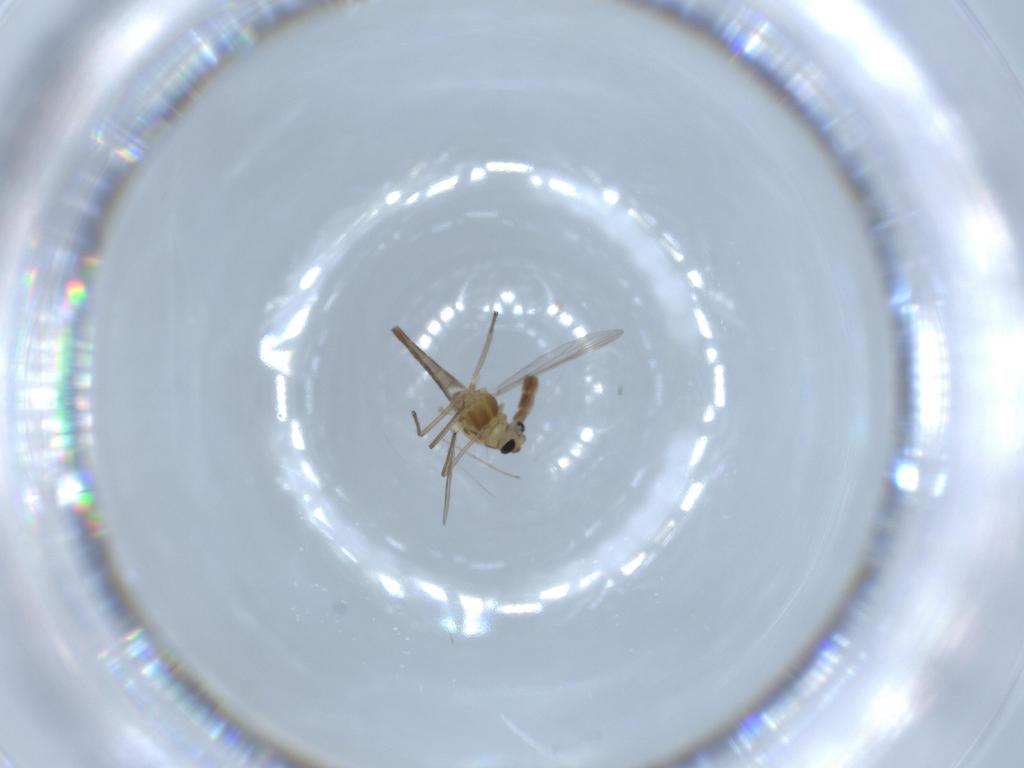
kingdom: Animalia
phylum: Arthropoda
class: Insecta
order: Diptera
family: Chironomidae
